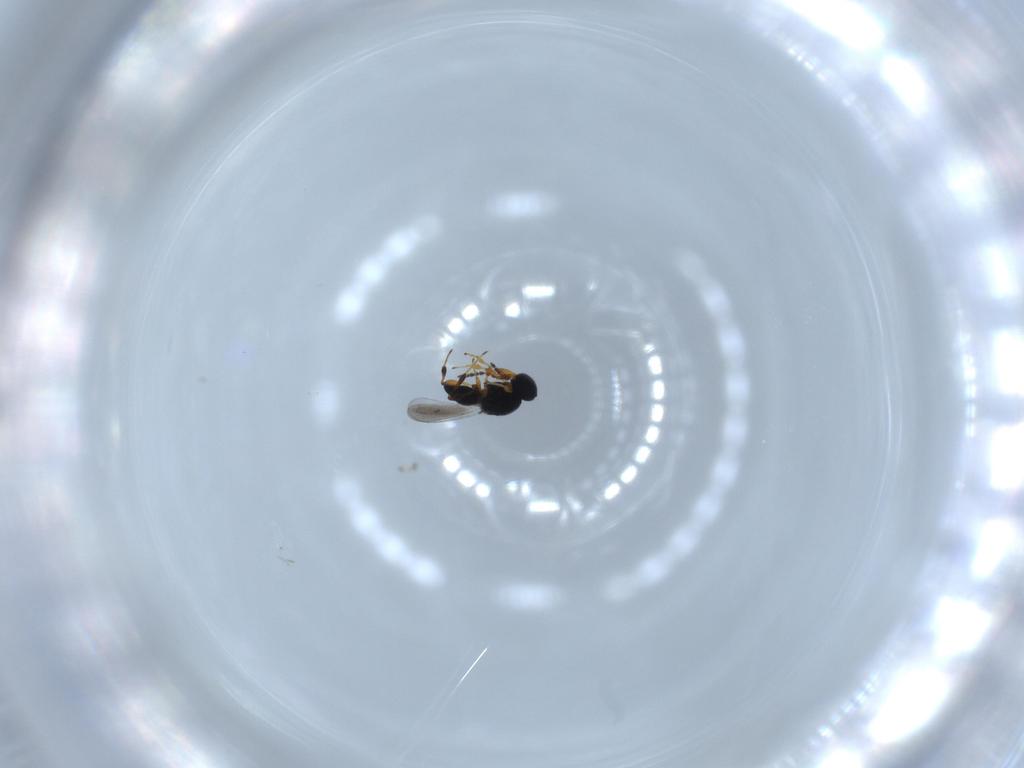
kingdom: Animalia
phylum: Arthropoda
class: Insecta
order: Hymenoptera
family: Platygastridae
